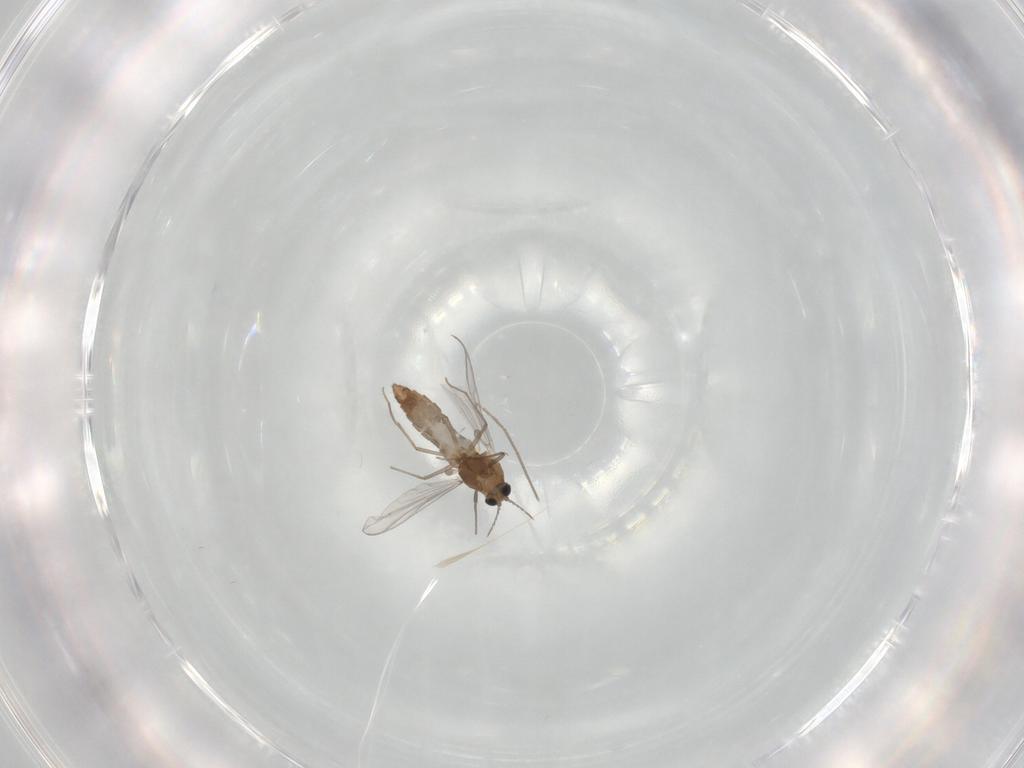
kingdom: Animalia
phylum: Arthropoda
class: Insecta
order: Diptera
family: Chironomidae
